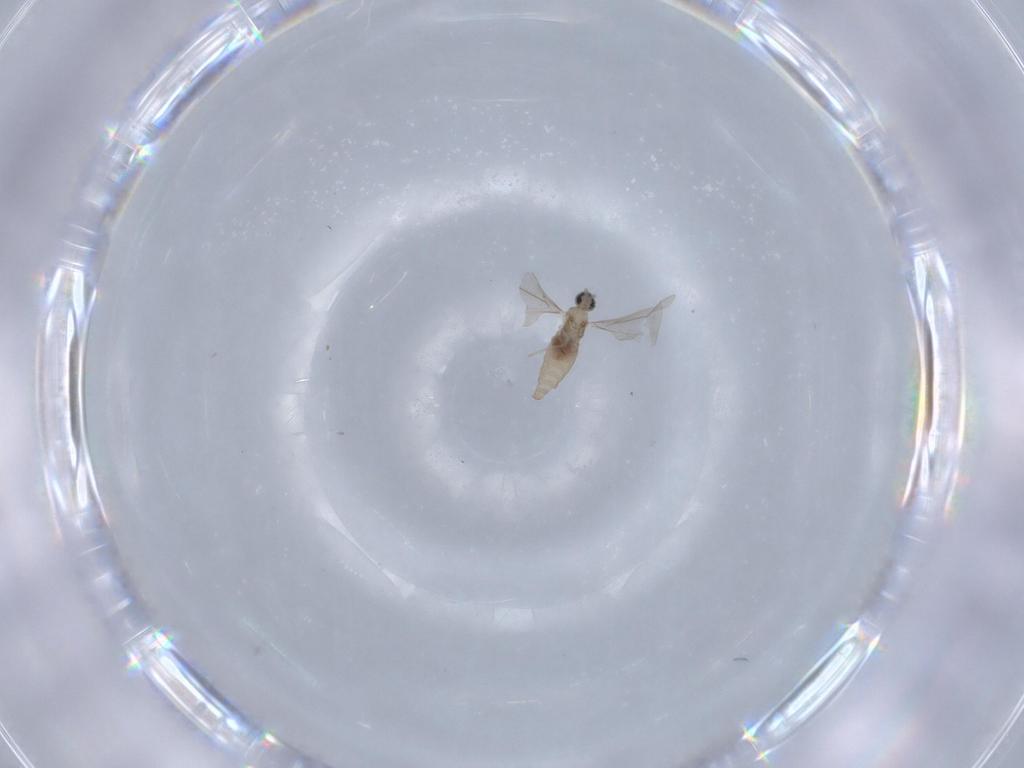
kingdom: Animalia
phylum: Arthropoda
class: Insecta
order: Diptera
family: Cecidomyiidae
